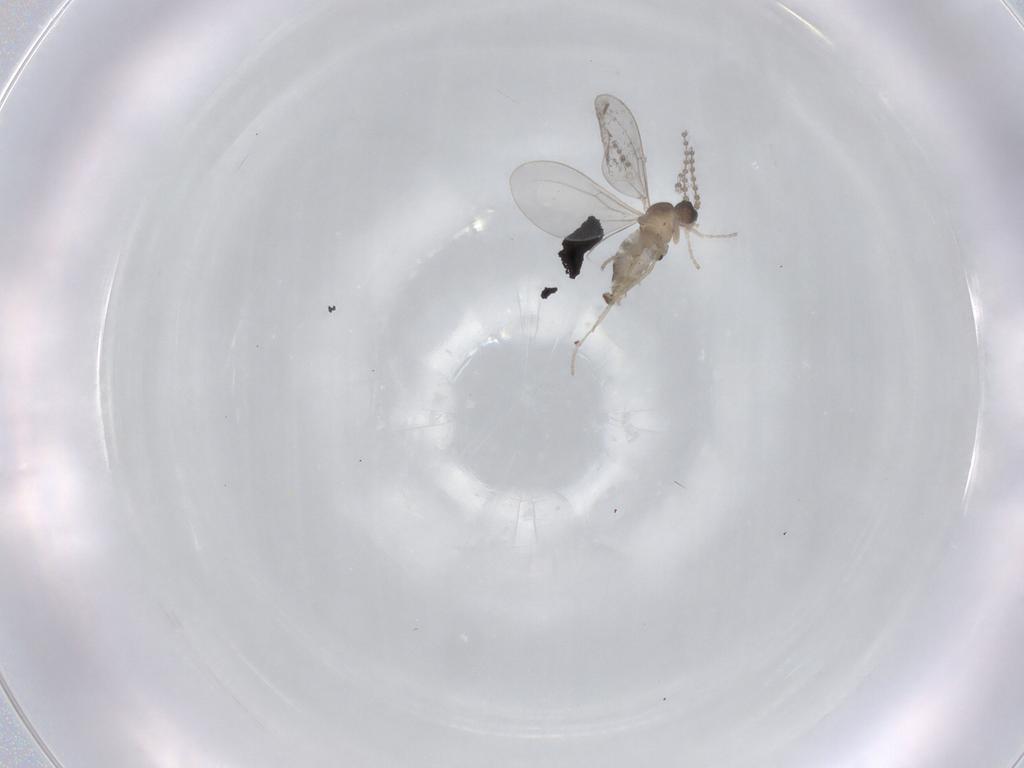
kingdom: Animalia
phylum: Arthropoda
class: Insecta
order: Diptera
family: Cecidomyiidae
